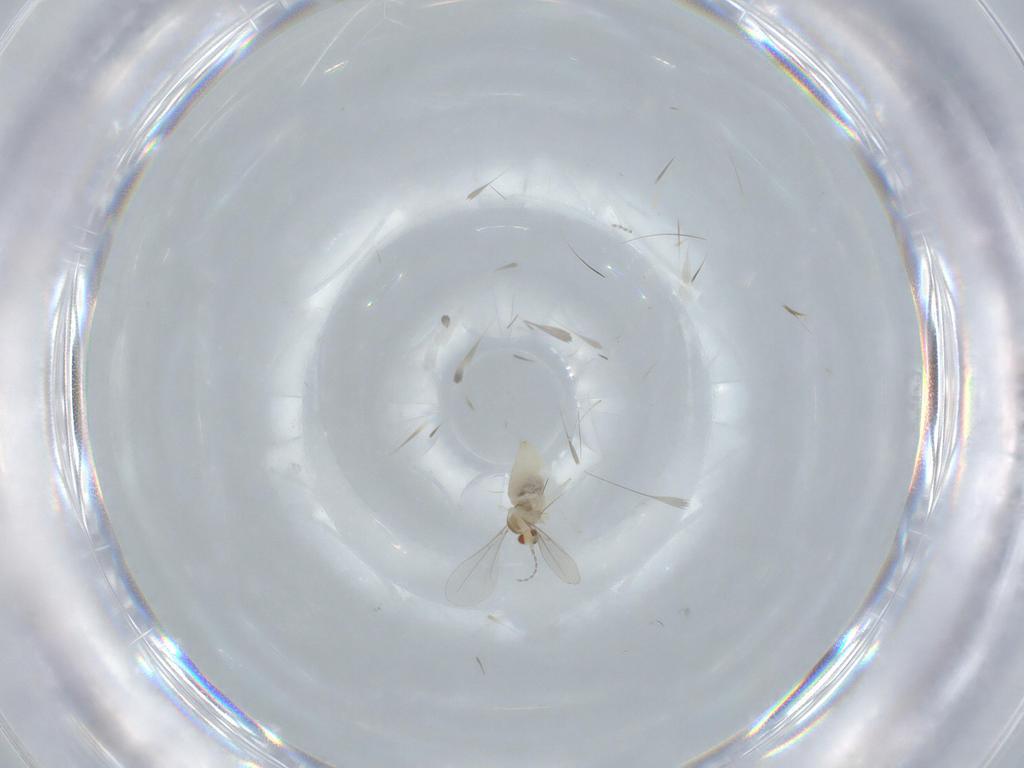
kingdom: Animalia
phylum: Arthropoda
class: Insecta
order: Diptera
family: Cecidomyiidae
